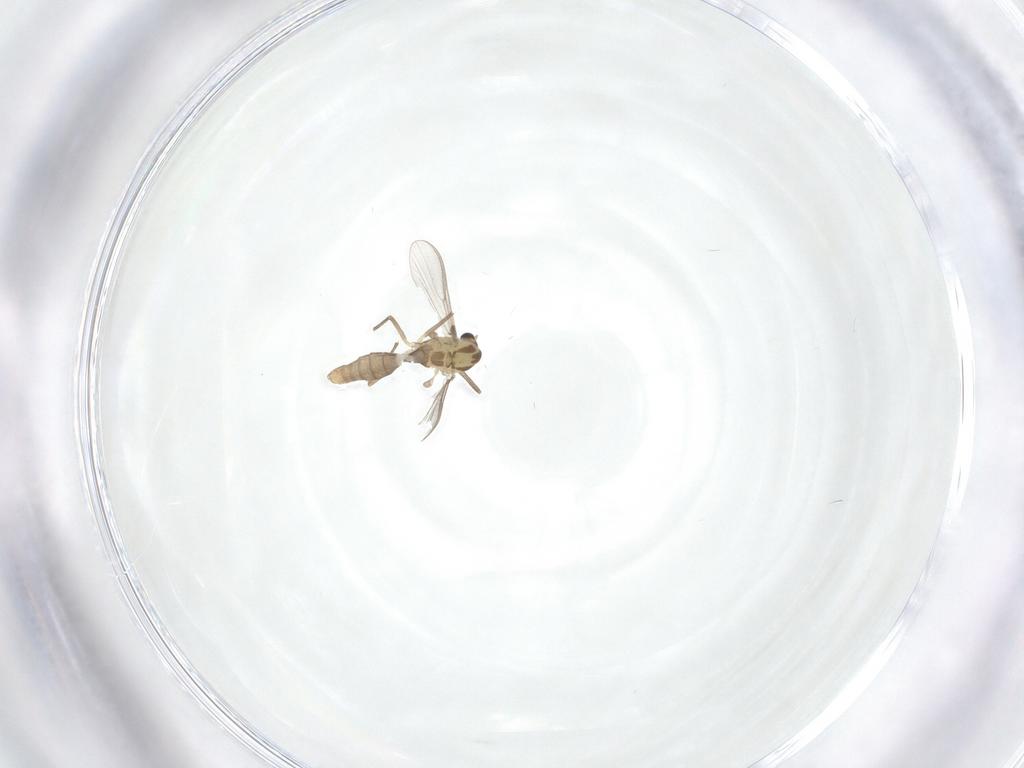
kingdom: Animalia
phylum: Arthropoda
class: Insecta
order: Diptera
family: Chironomidae
